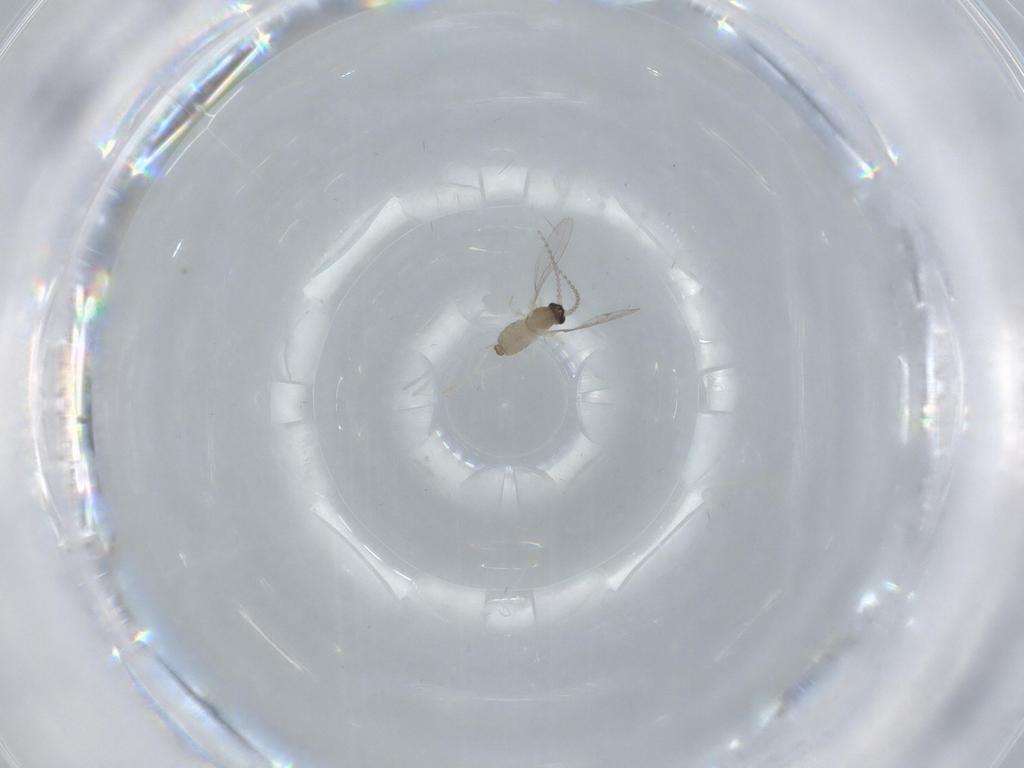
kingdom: Animalia
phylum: Arthropoda
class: Insecta
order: Diptera
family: Cecidomyiidae
